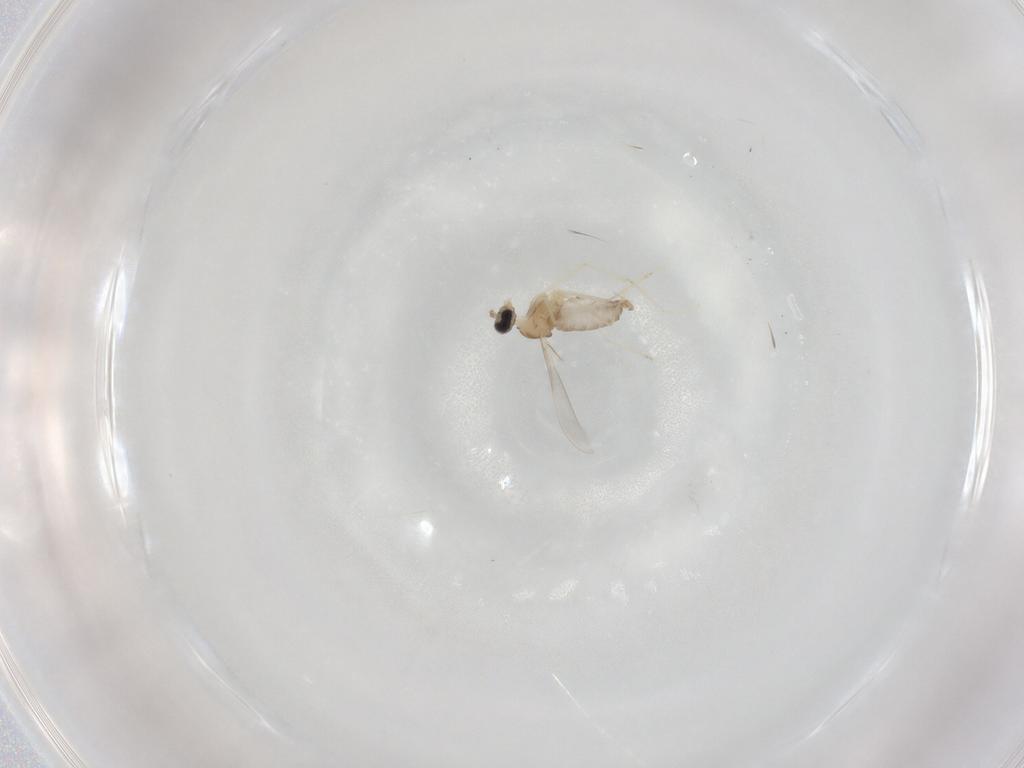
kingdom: Animalia
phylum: Arthropoda
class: Insecta
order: Diptera
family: Cecidomyiidae
